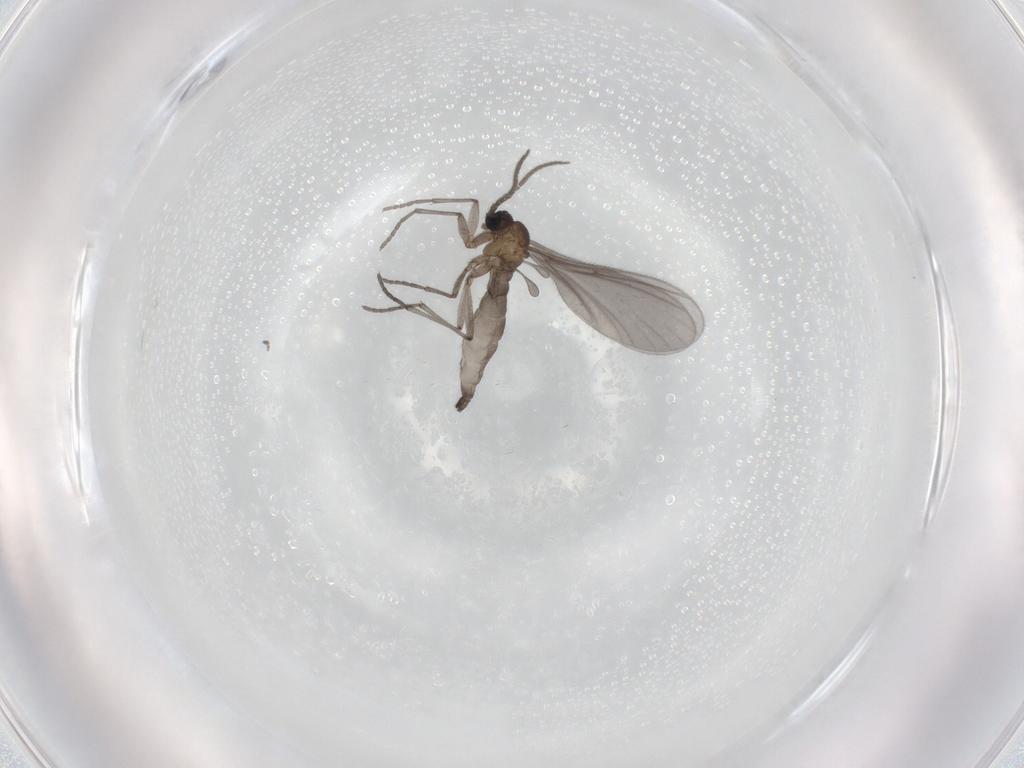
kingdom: Animalia
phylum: Arthropoda
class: Insecta
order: Diptera
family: Sciaridae
